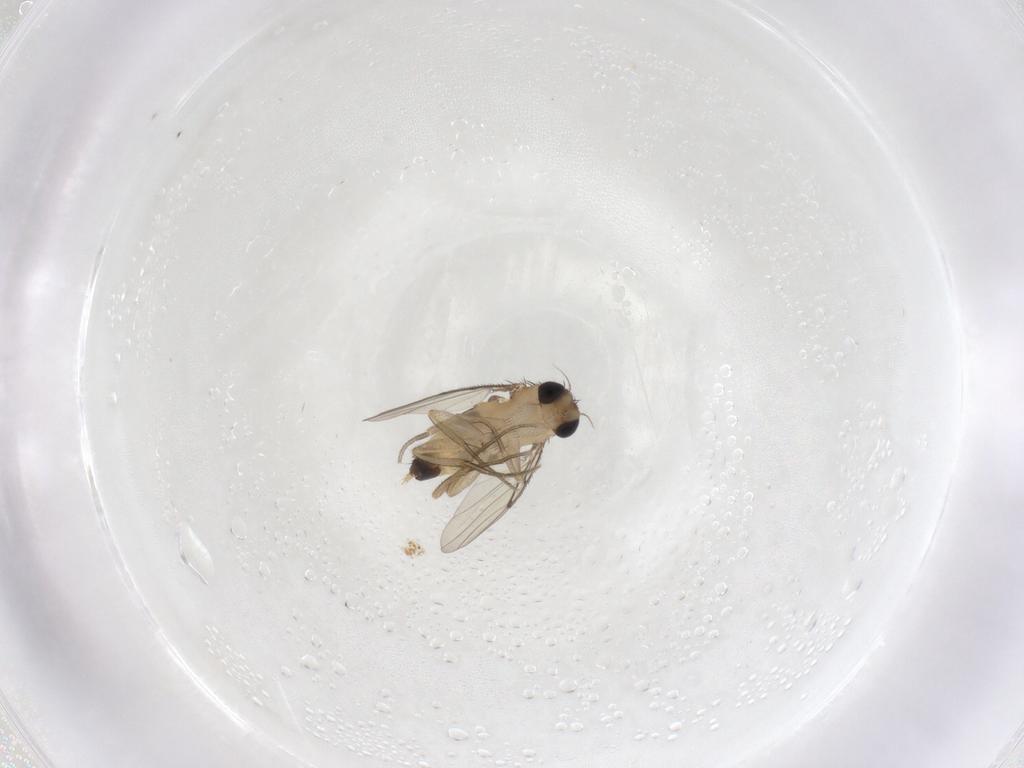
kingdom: Animalia
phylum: Arthropoda
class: Insecta
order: Diptera
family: Phoridae
